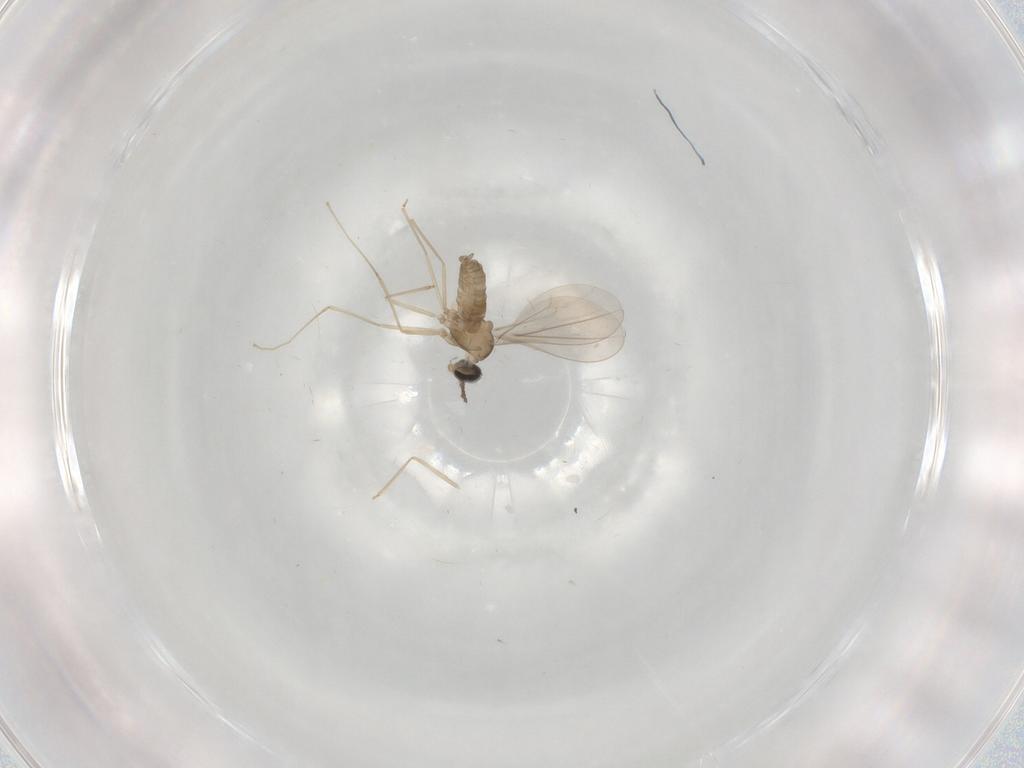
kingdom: Animalia
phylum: Arthropoda
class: Insecta
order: Diptera
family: Cecidomyiidae
